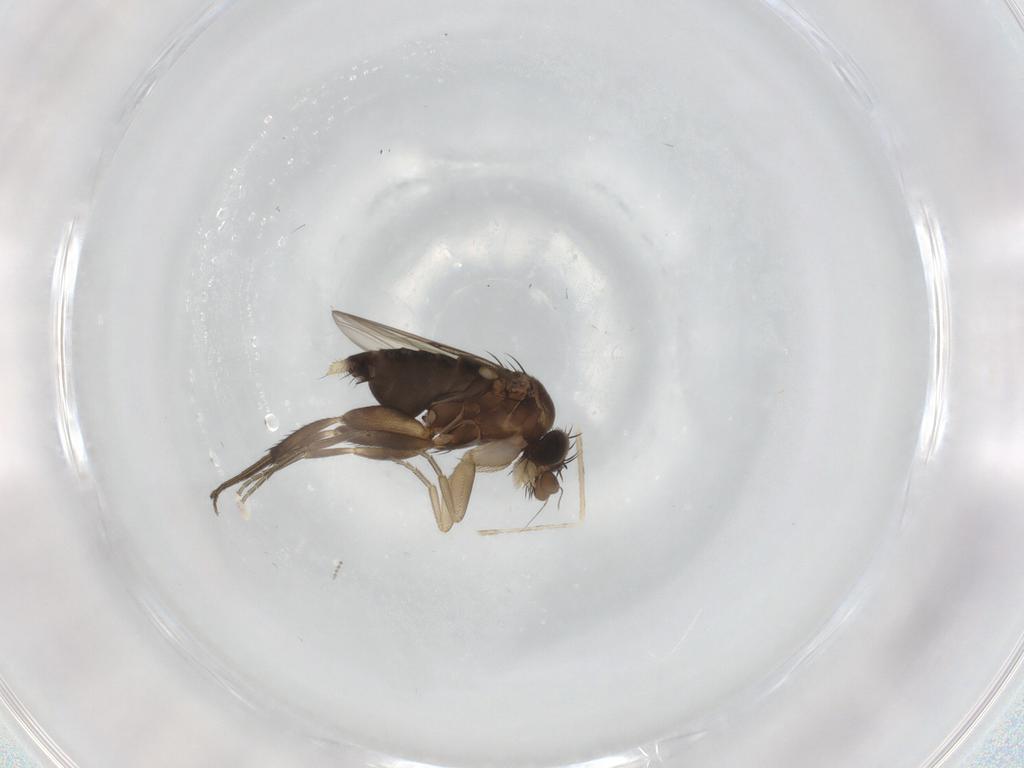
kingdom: Animalia
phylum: Arthropoda
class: Insecta
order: Diptera
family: Phoridae
